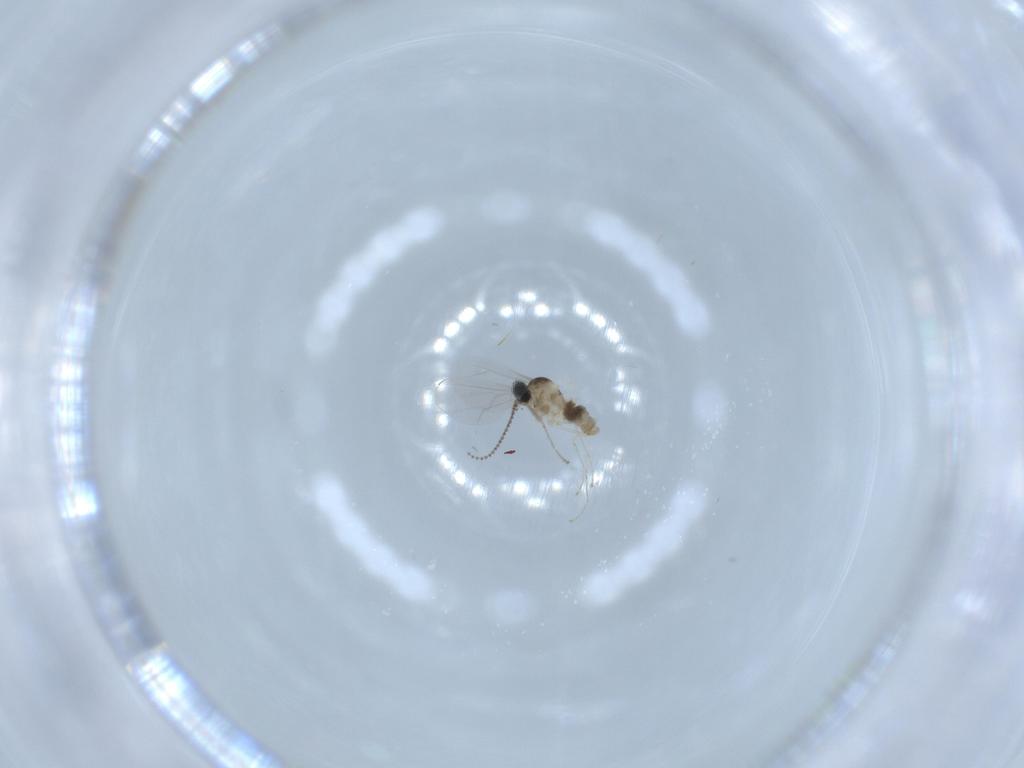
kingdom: Animalia
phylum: Arthropoda
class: Insecta
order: Diptera
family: Cecidomyiidae
